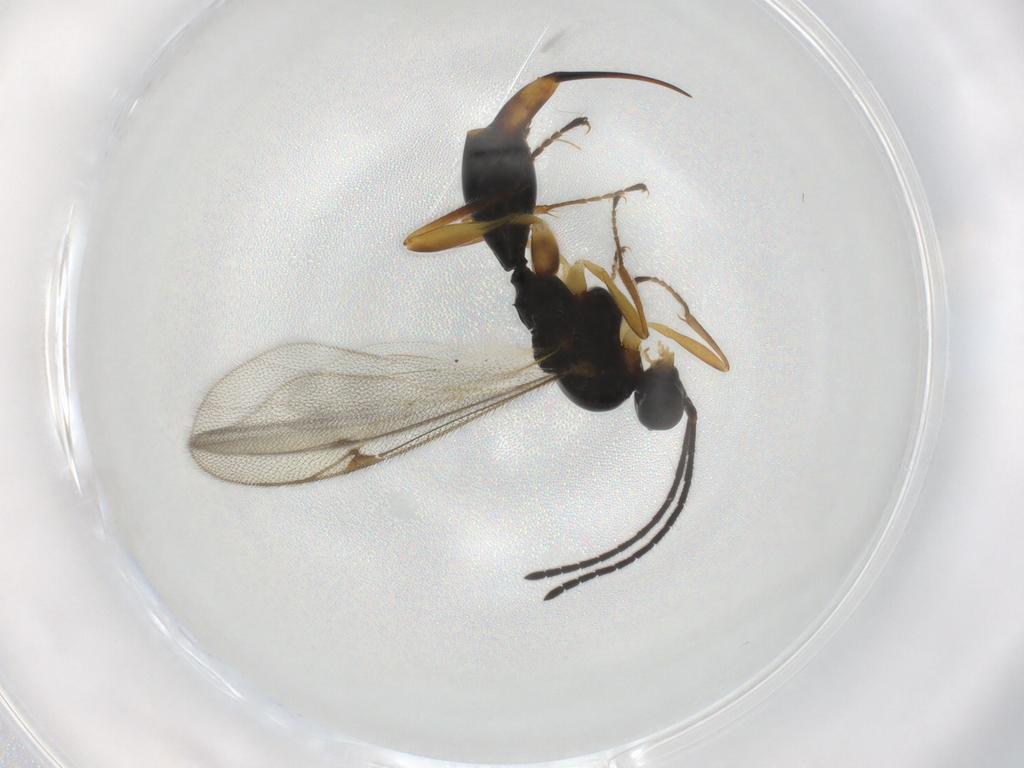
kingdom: Animalia
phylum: Arthropoda
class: Insecta
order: Hymenoptera
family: Proctotrupidae
